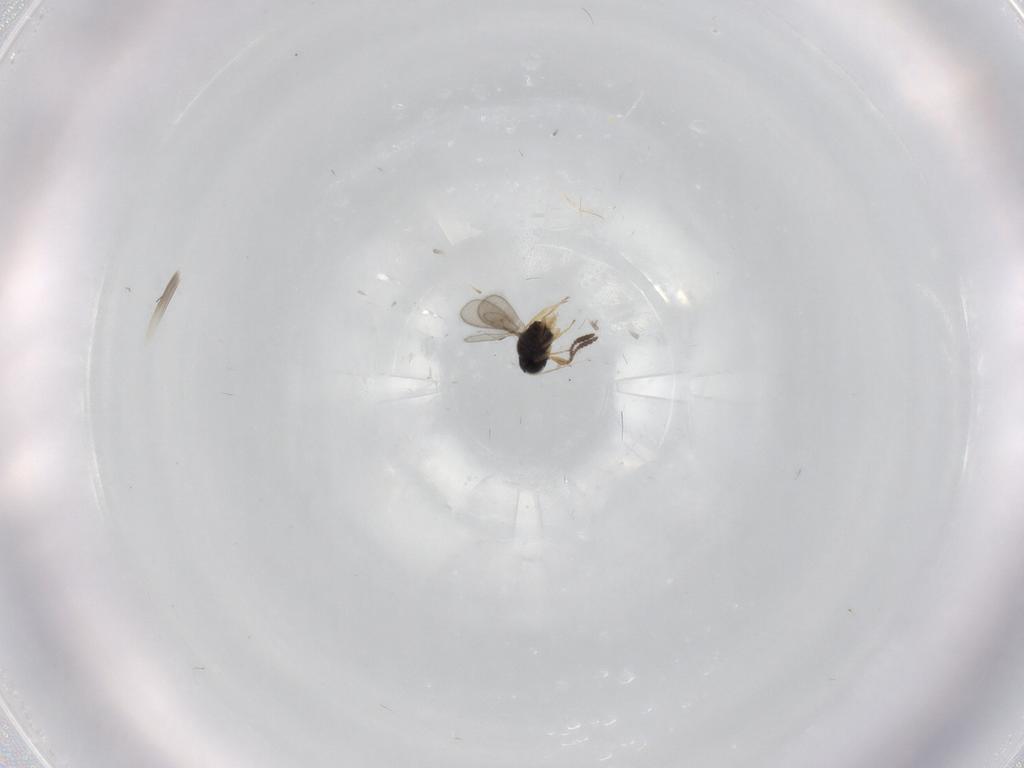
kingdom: Animalia
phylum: Arthropoda
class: Insecta
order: Hymenoptera
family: Scelionidae
